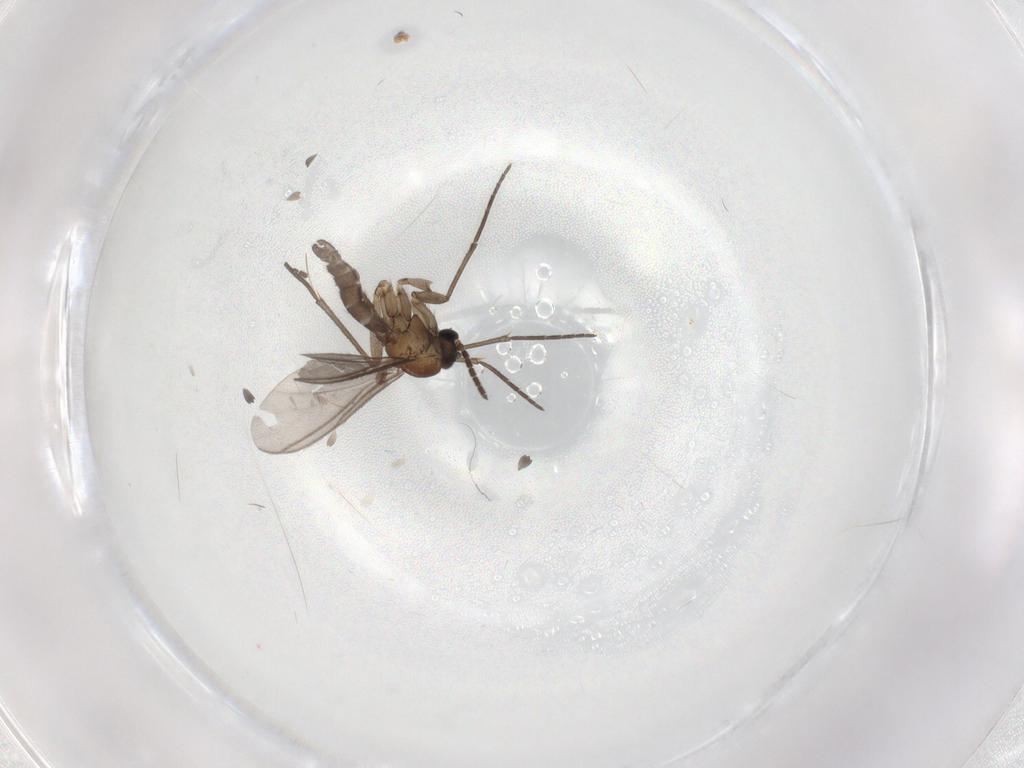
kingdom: Animalia
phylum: Arthropoda
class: Insecta
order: Diptera
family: Sciaridae
